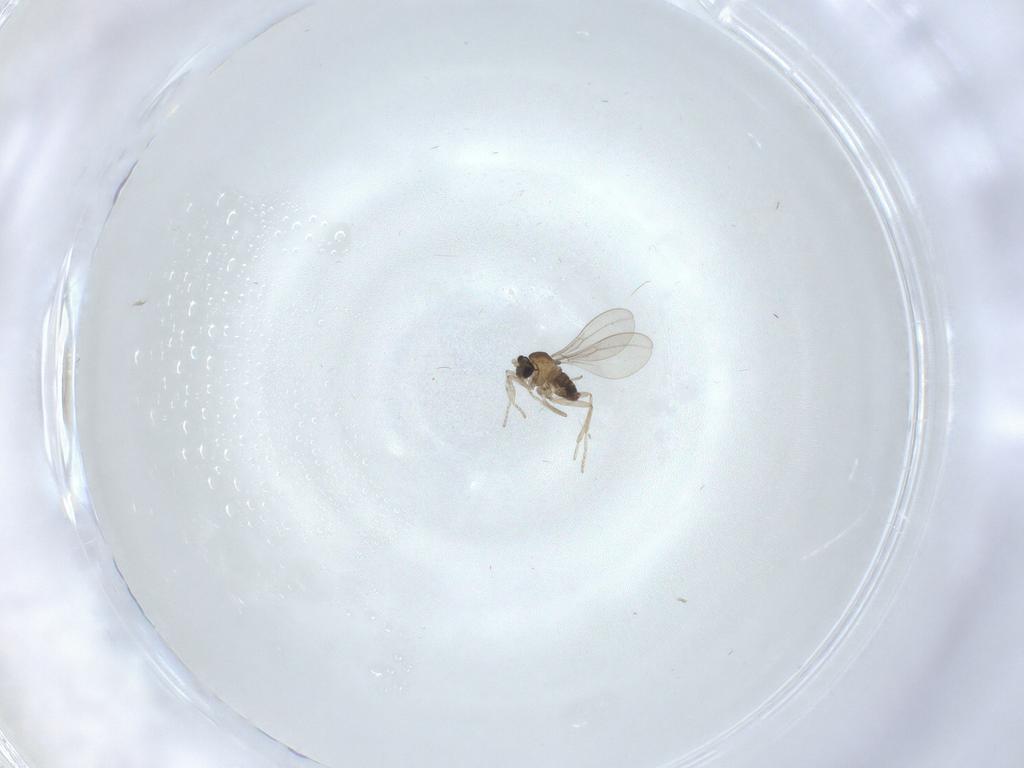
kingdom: Animalia
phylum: Arthropoda
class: Insecta
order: Diptera
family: Cecidomyiidae
